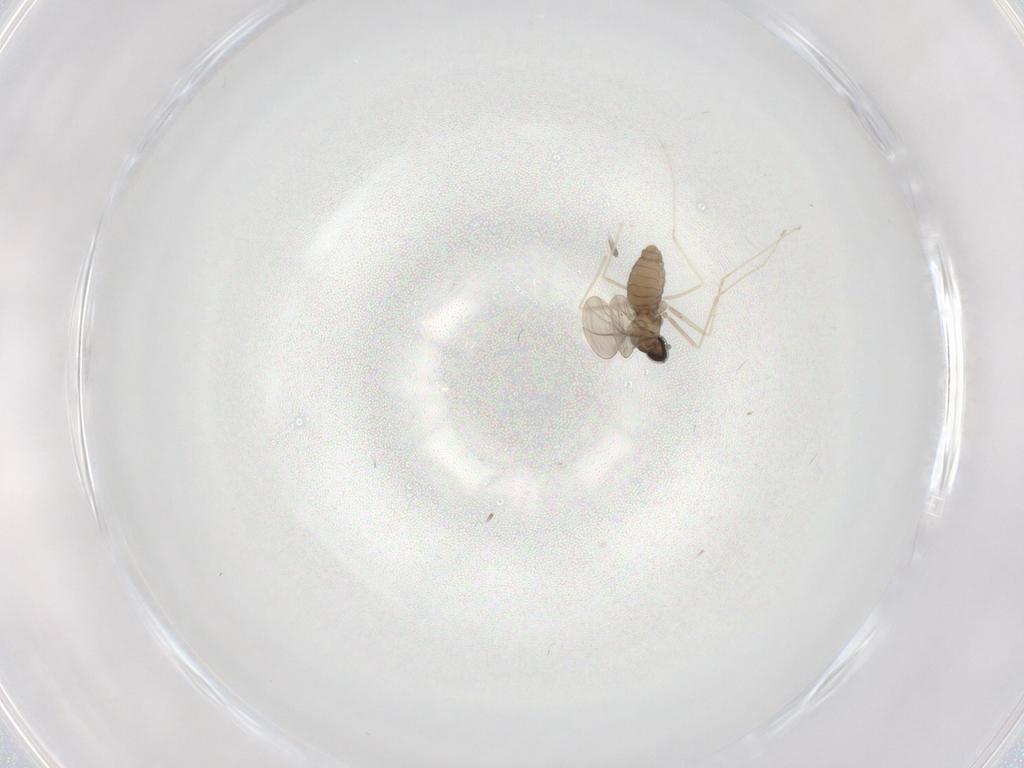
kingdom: Animalia
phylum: Arthropoda
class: Insecta
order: Diptera
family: Cecidomyiidae
